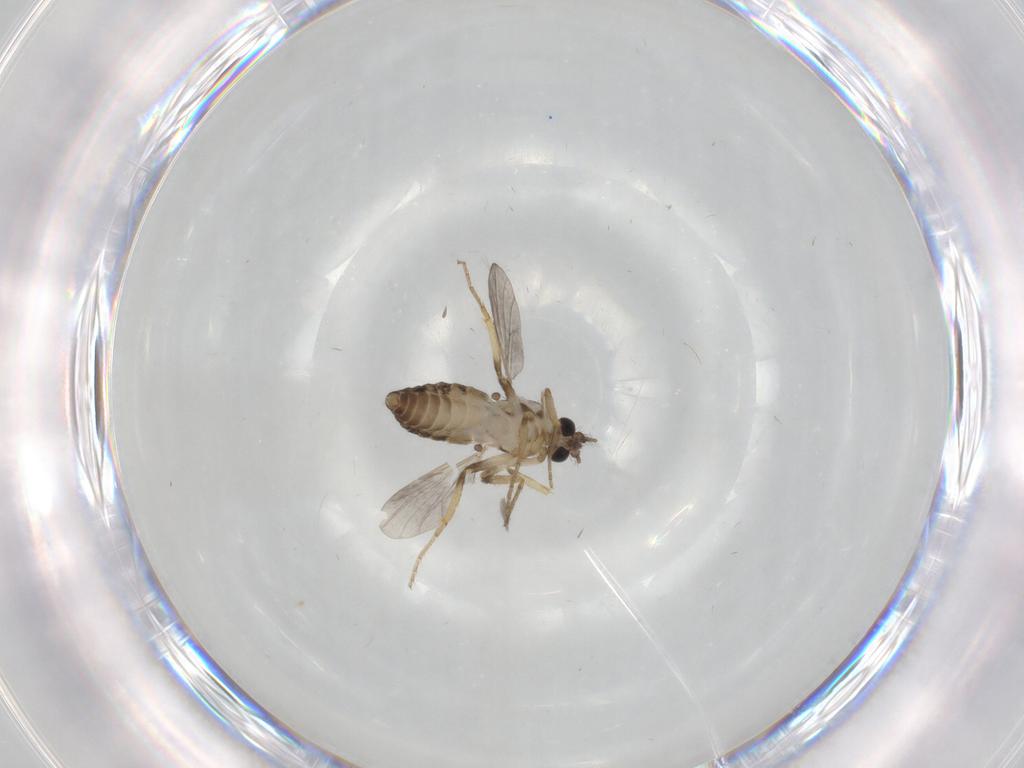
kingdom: Animalia
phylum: Arthropoda
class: Insecta
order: Diptera
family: Ceratopogonidae
